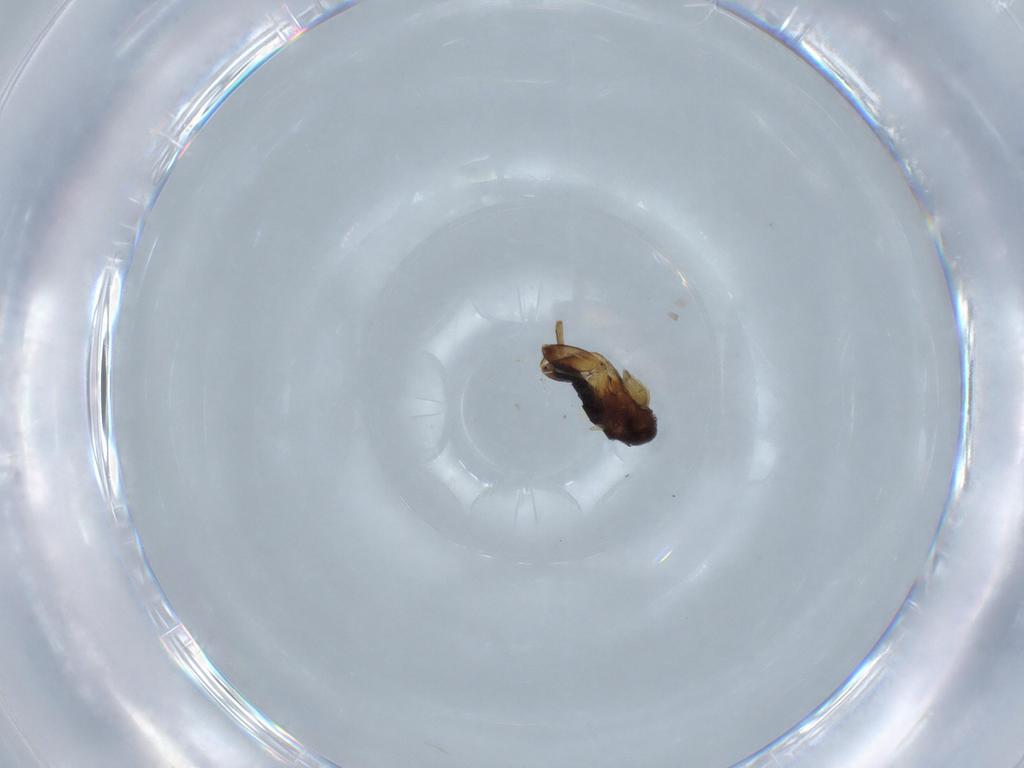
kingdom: Animalia
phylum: Arthropoda
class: Insecta
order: Diptera
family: Phoridae
